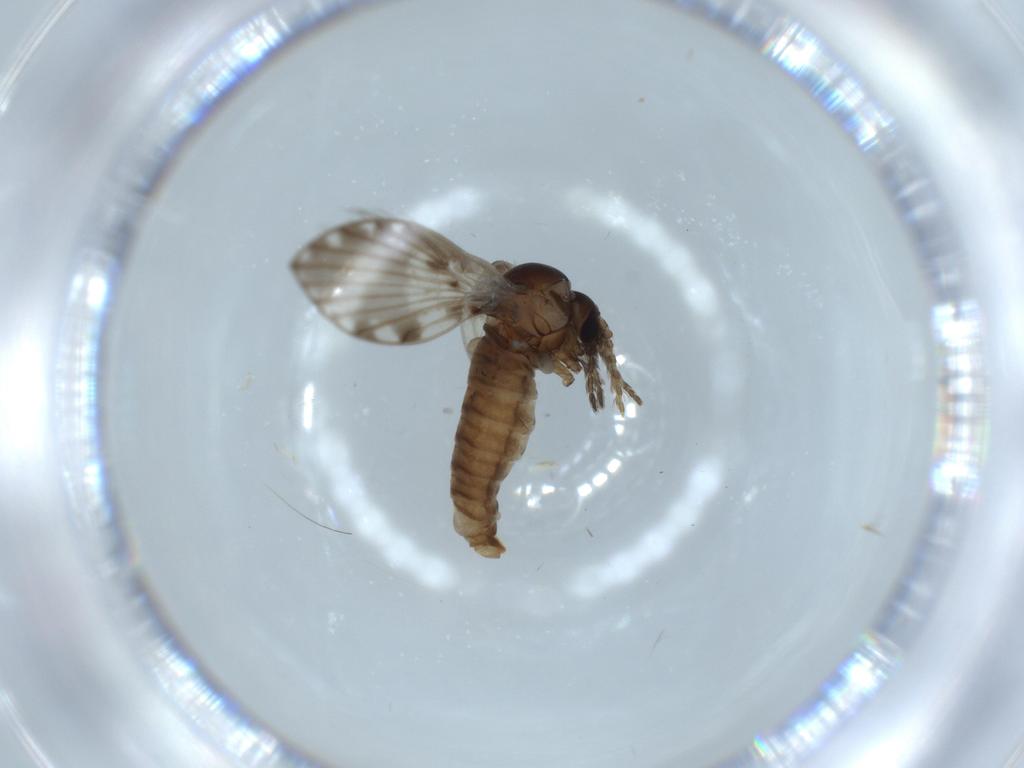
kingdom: Animalia
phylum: Arthropoda
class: Insecta
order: Diptera
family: Psychodidae
